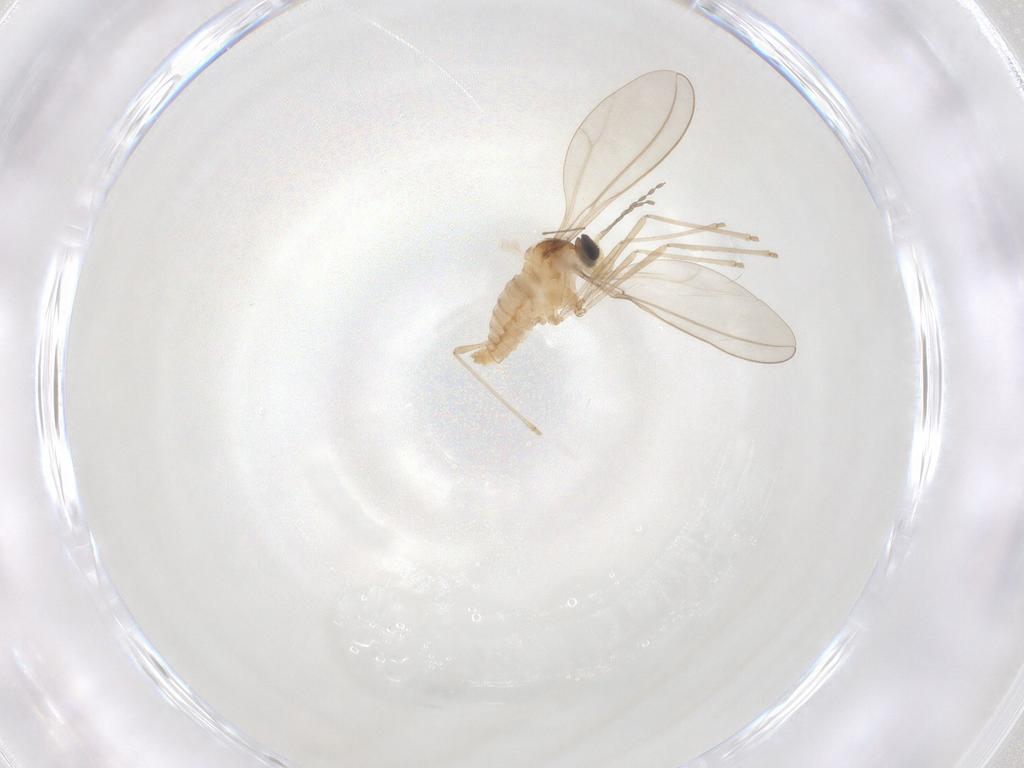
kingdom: Animalia
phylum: Arthropoda
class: Insecta
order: Diptera
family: Cecidomyiidae
